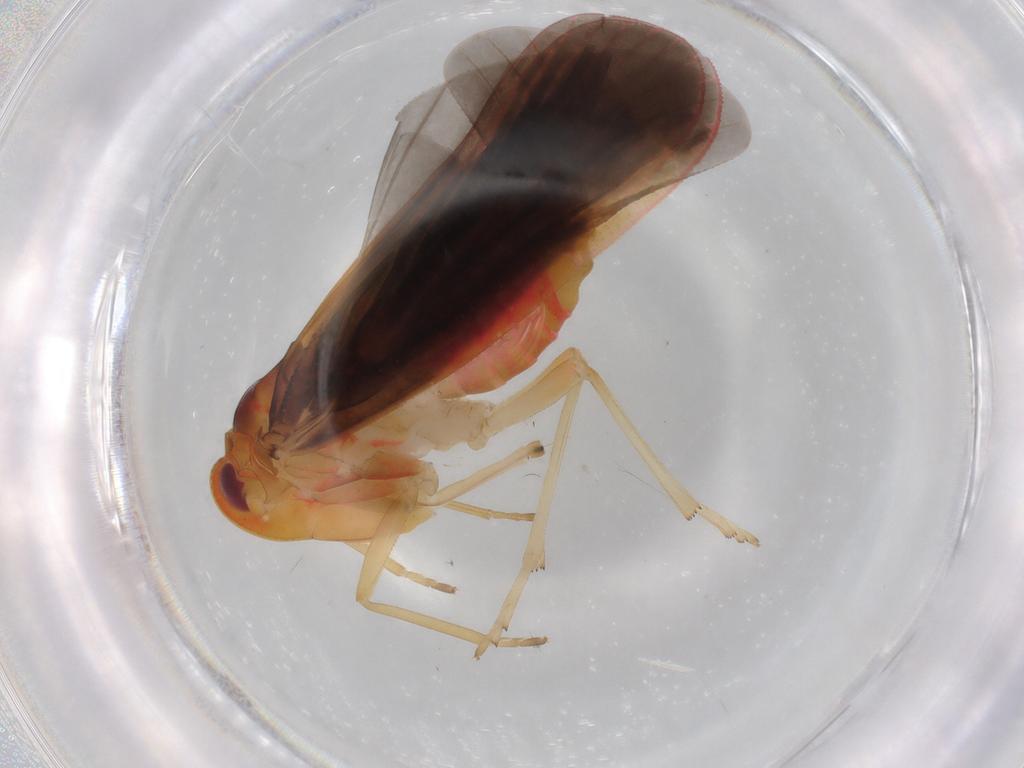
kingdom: Animalia
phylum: Arthropoda
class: Insecta
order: Hemiptera
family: Derbidae
